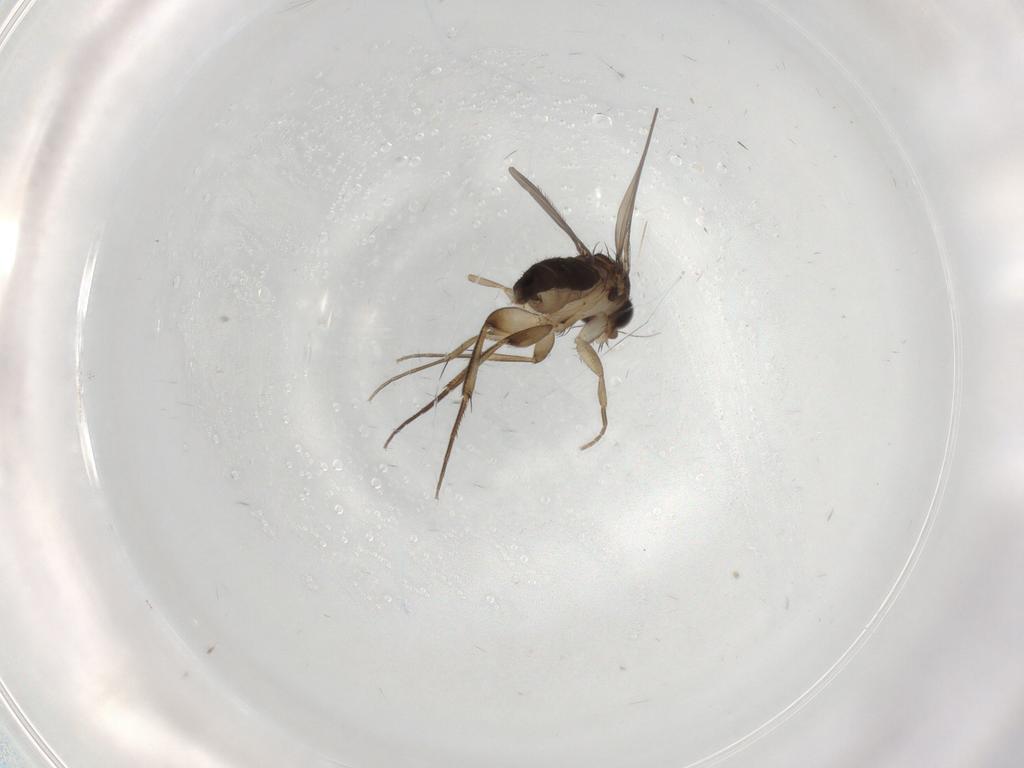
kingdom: Animalia
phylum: Arthropoda
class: Insecta
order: Diptera
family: Phoridae
